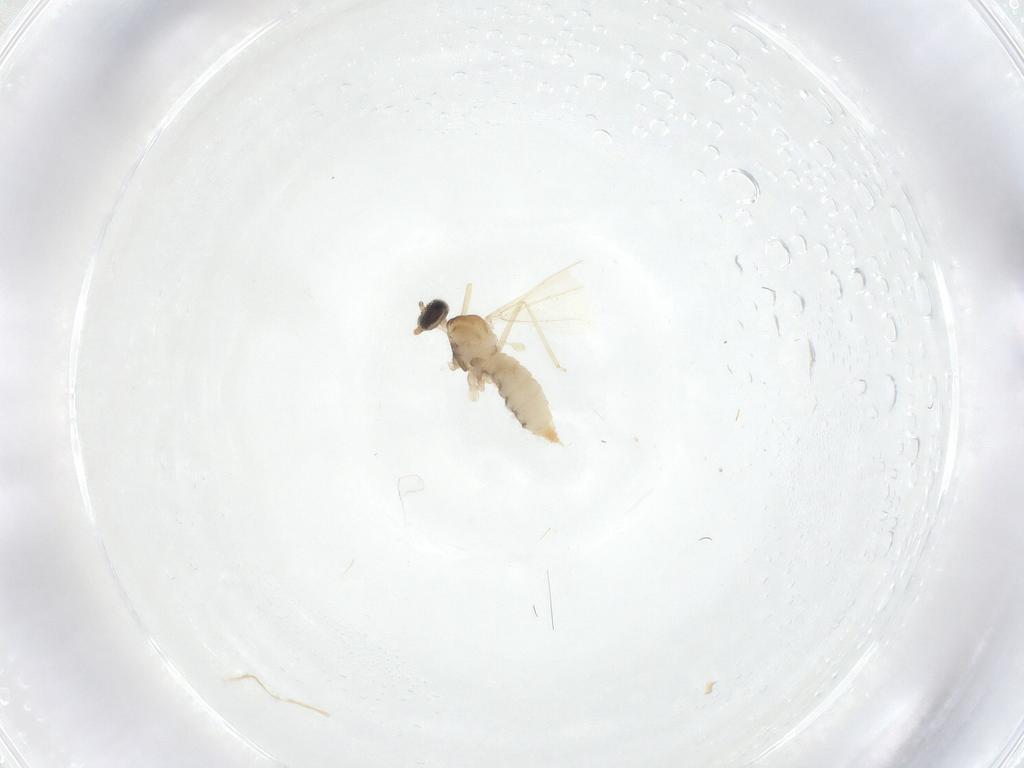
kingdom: Animalia
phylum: Arthropoda
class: Insecta
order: Diptera
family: Cecidomyiidae
